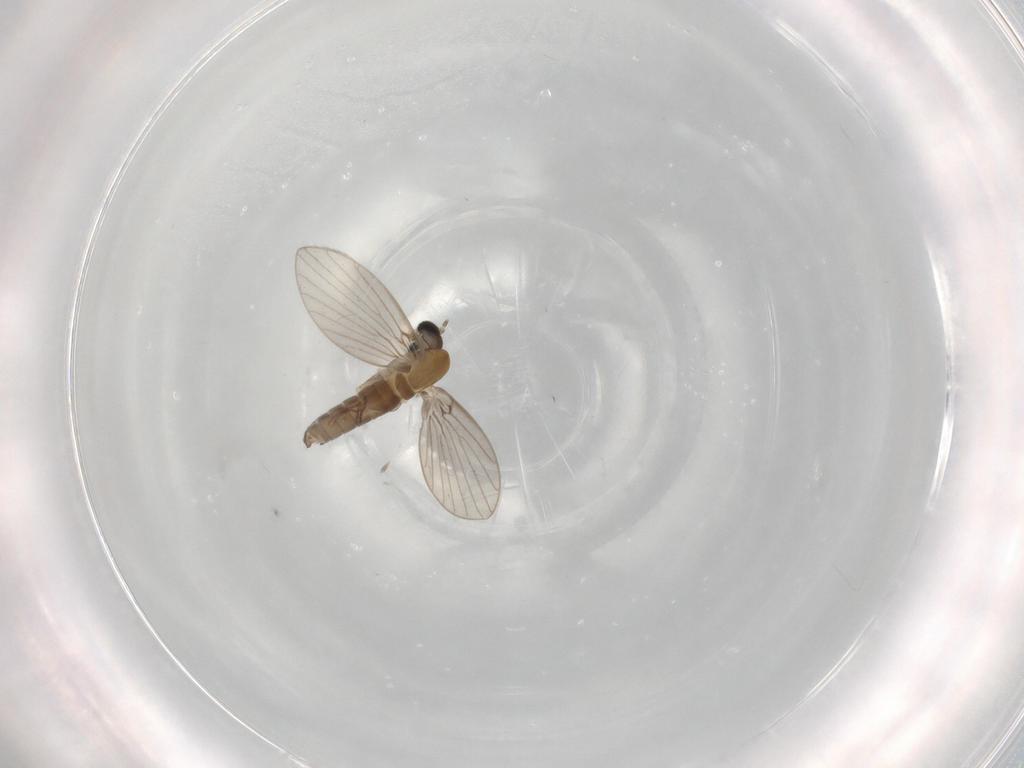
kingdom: Animalia
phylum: Arthropoda
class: Insecta
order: Diptera
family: Psychodidae
